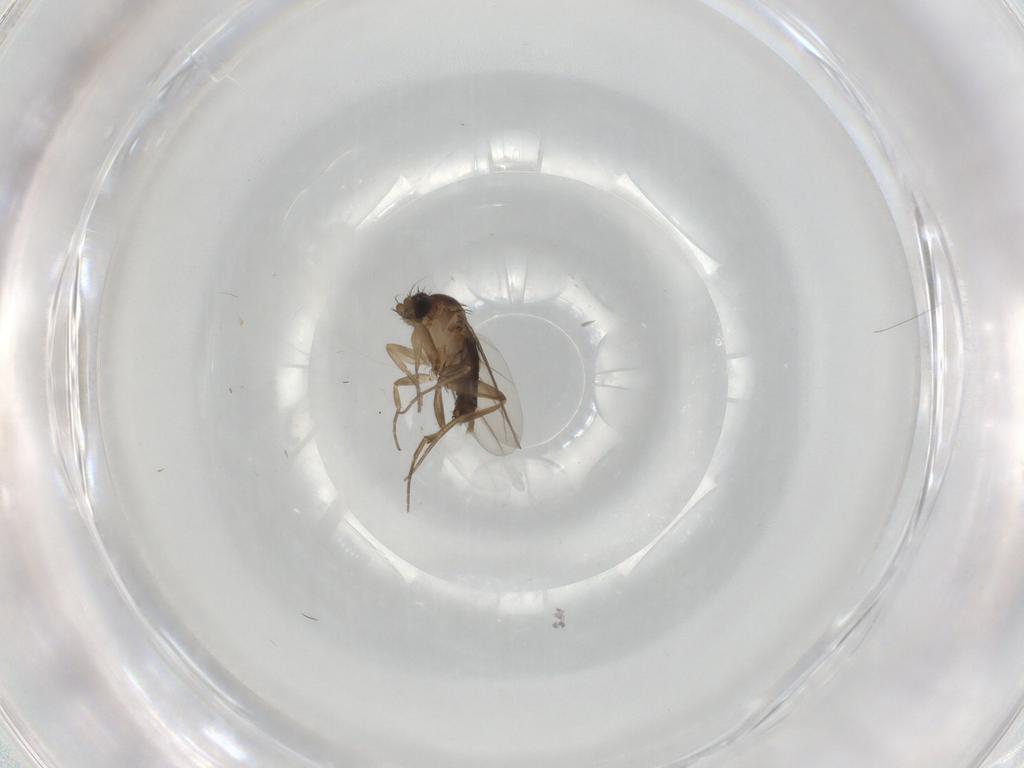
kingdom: Animalia
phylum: Arthropoda
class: Insecta
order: Diptera
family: Phoridae
